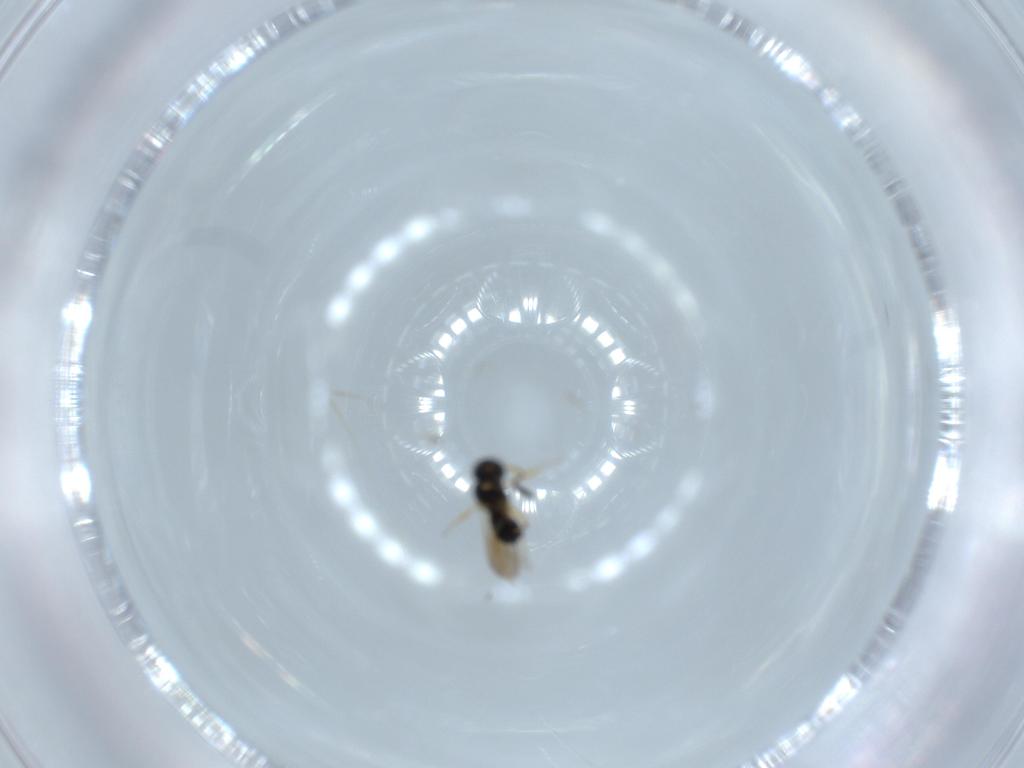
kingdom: Animalia
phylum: Arthropoda
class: Insecta
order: Hymenoptera
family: Scelionidae
